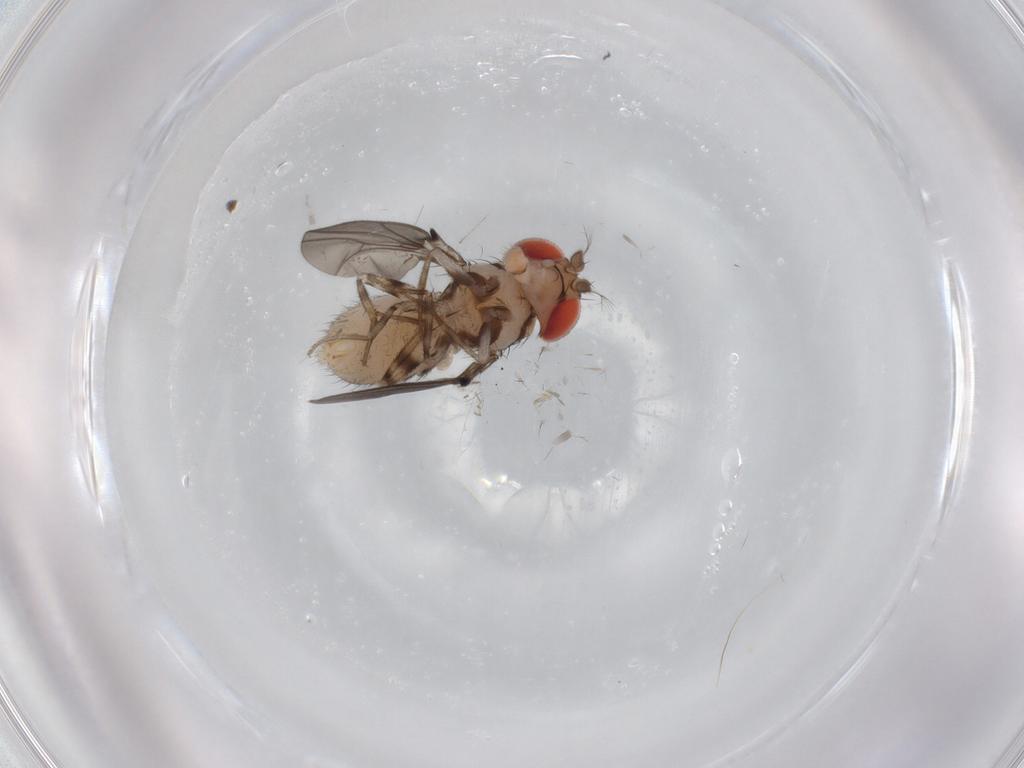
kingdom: Animalia
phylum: Arthropoda
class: Insecta
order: Diptera
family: Drosophilidae
